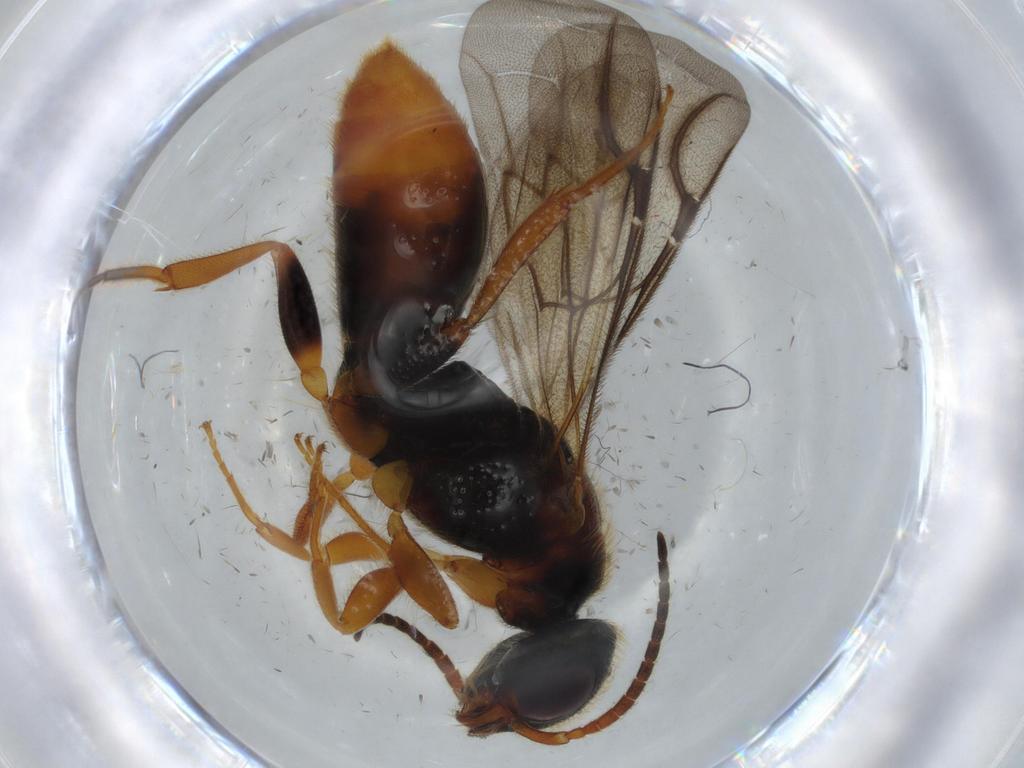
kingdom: Animalia
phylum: Arthropoda
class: Insecta
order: Hymenoptera
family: Bethylidae
